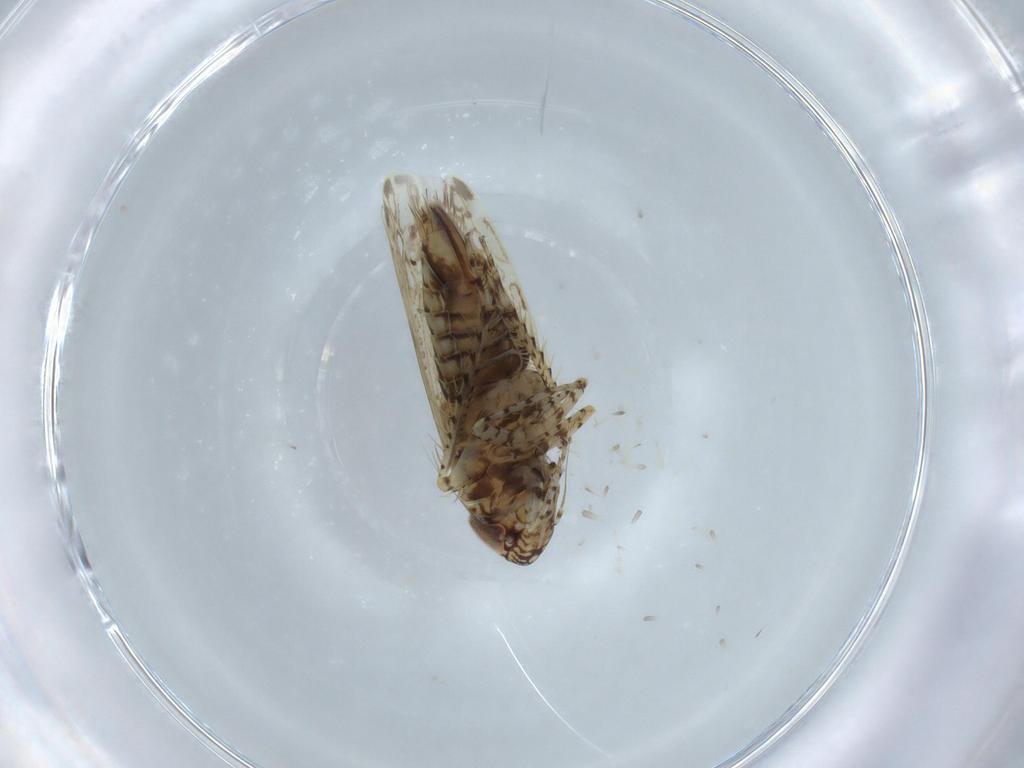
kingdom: Animalia
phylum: Arthropoda
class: Insecta
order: Hemiptera
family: Cicadellidae
